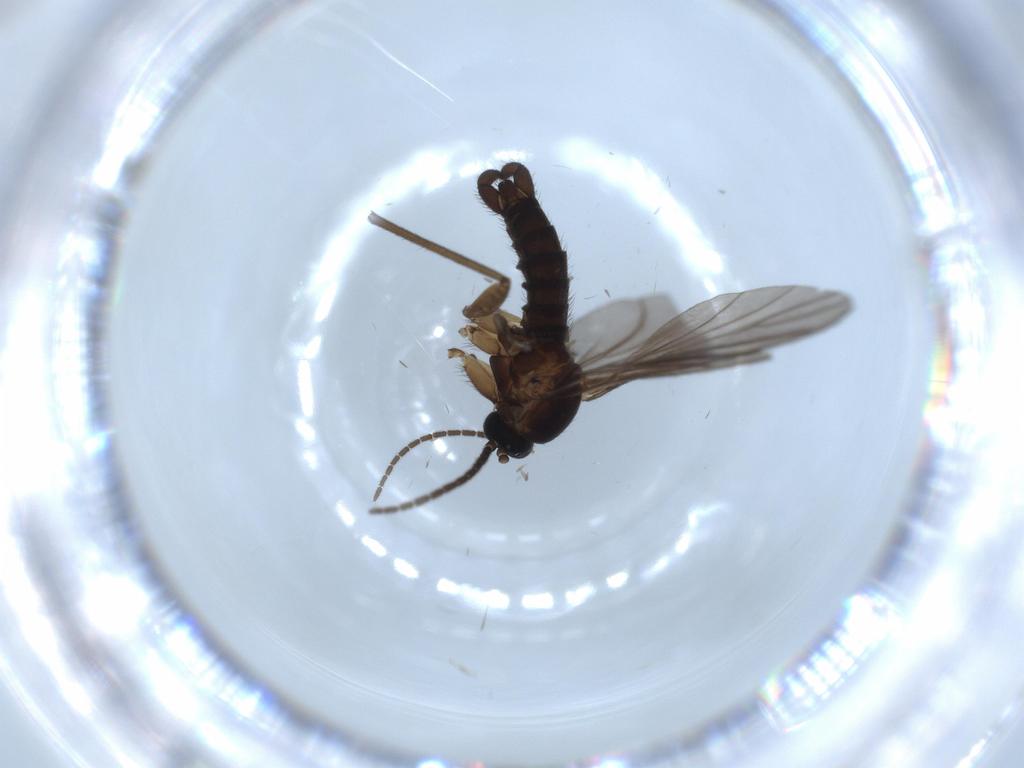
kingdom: Animalia
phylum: Arthropoda
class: Insecta
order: Diptera
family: Sciaridae
